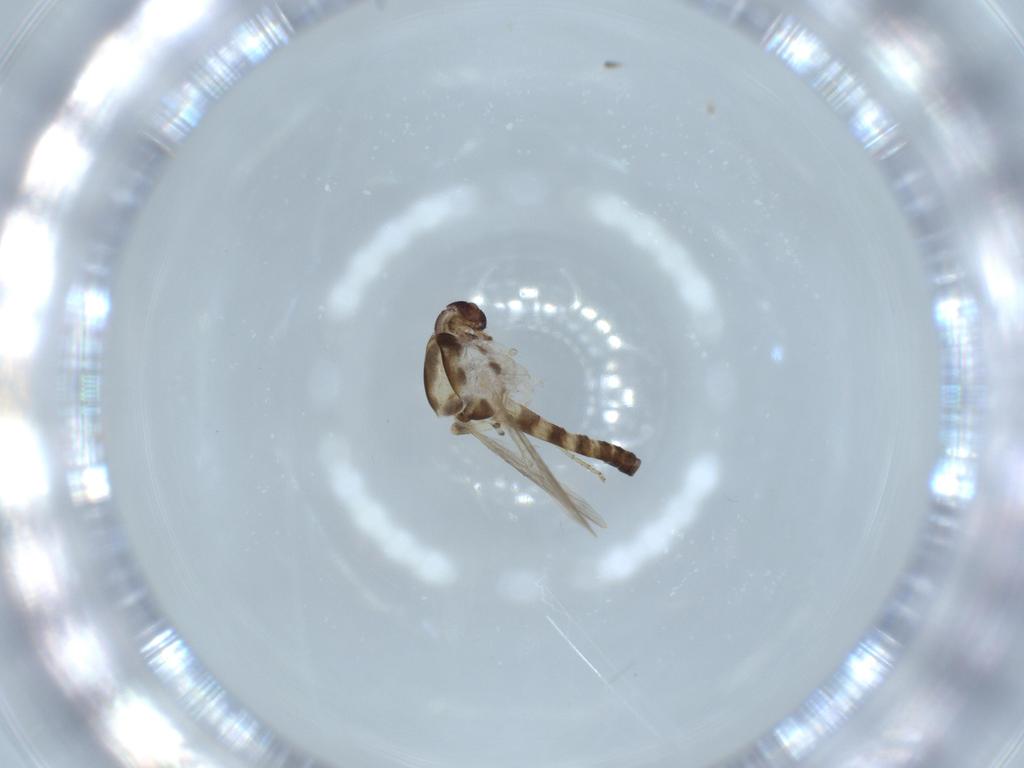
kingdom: Animalia
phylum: Arthropoda
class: Insecta
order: Diptera
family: Ceratopogonidae
